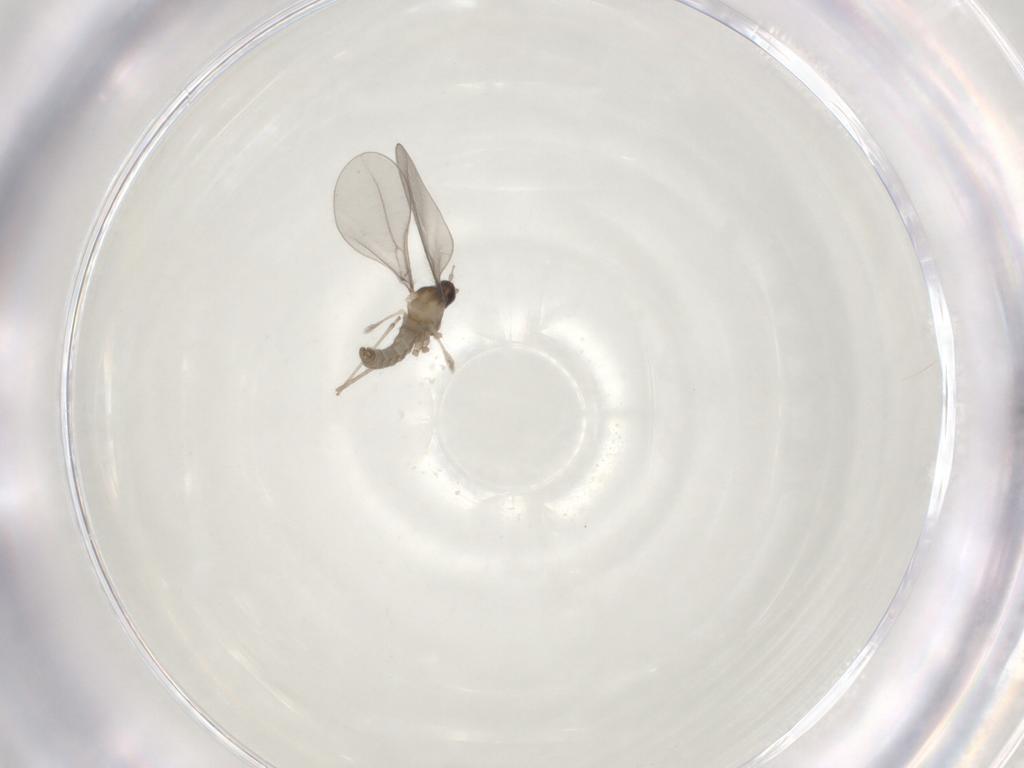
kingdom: Animalia
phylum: Arthropoda
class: Insecta
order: Diptera
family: Cecidomyiidae
